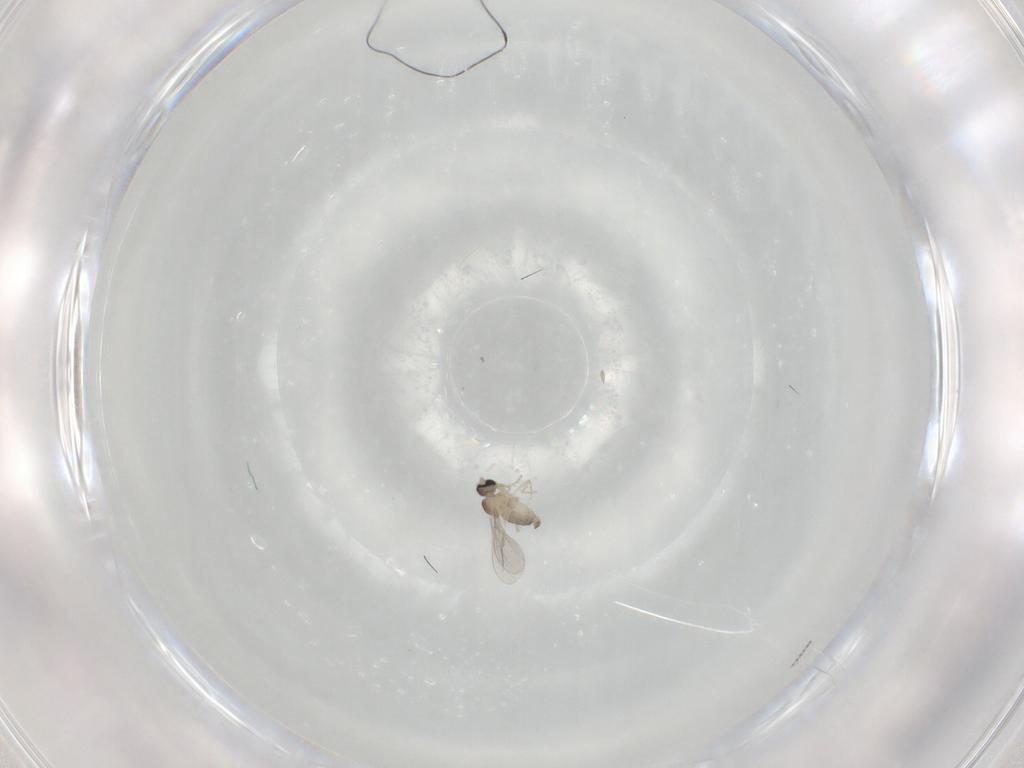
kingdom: Animalia
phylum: Arthropoda
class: Insecta
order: Diptera
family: Cecidomyiidae
